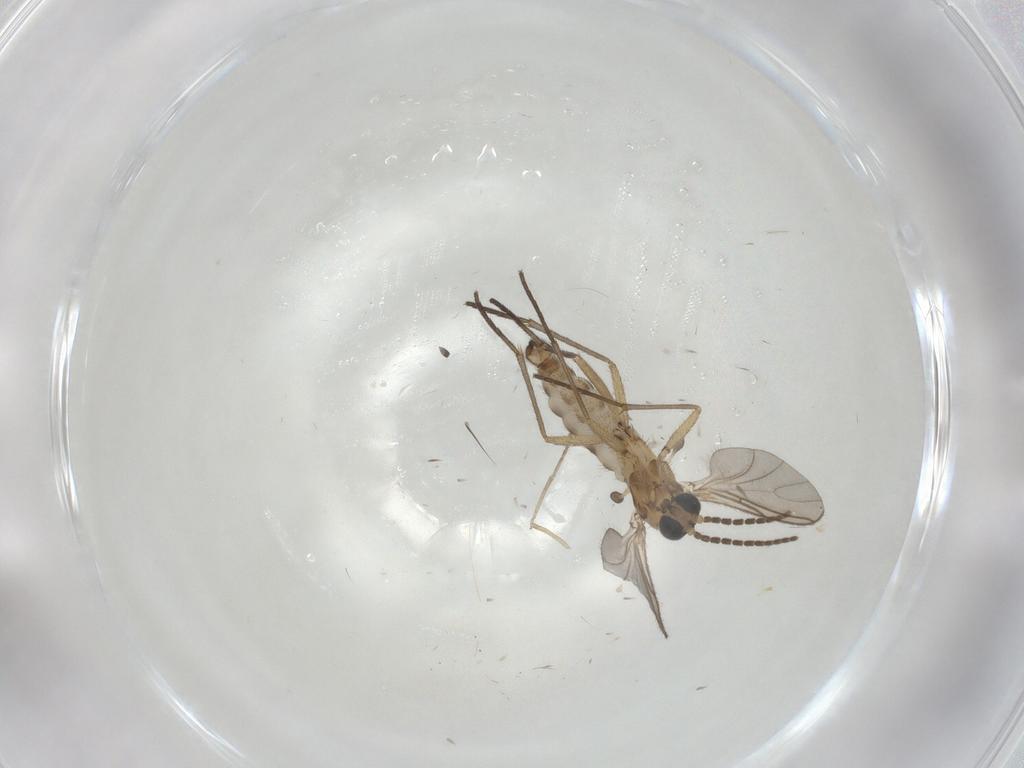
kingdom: Animalia
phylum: Arthropoda
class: Insecta
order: Diptera
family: Sciaridae
